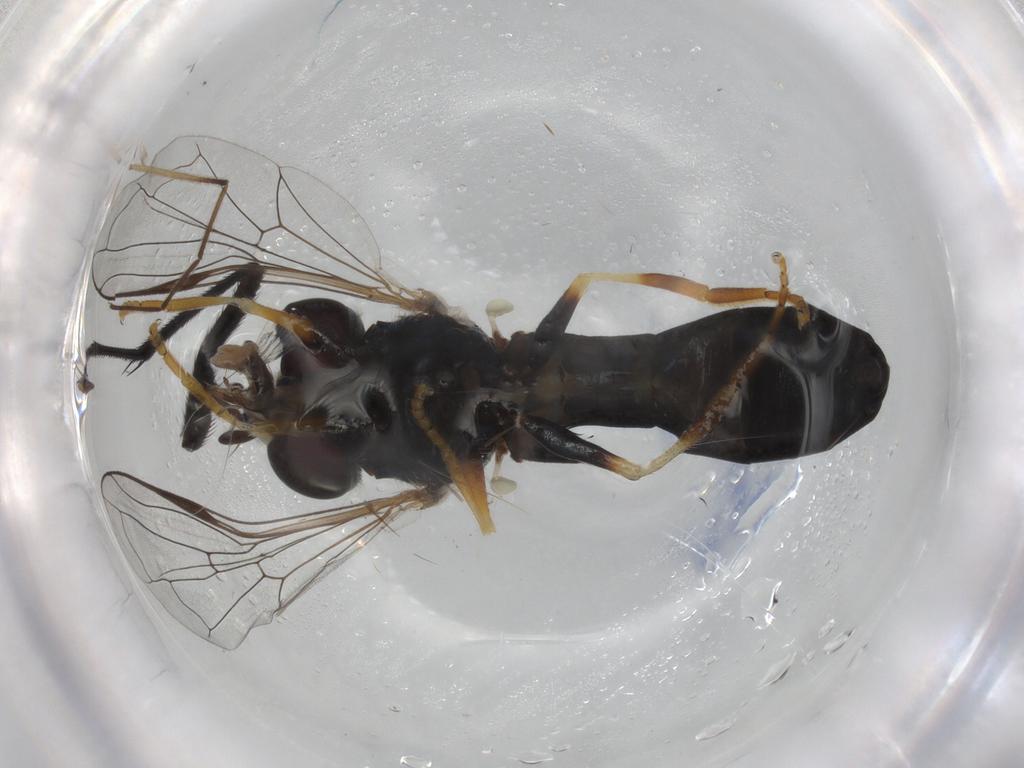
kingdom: Animalia
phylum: Arthropoda
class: Insecta
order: Diptera
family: Syrphidae
